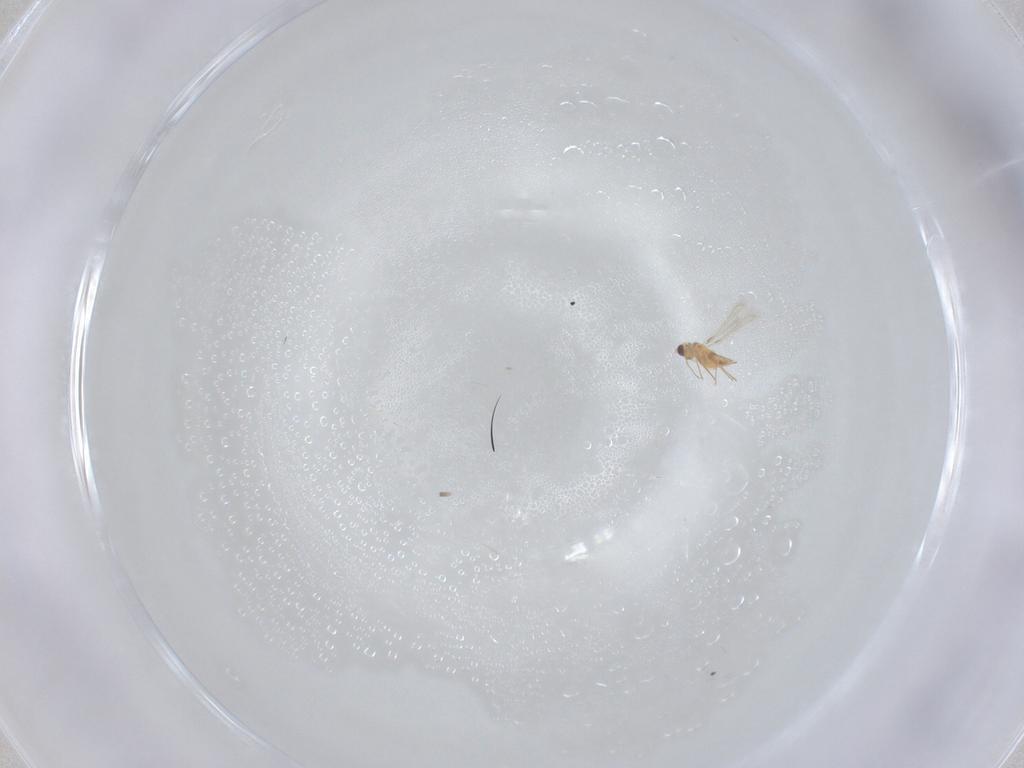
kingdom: Animalia
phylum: Arthropoda
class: Insecta
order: Hymenoptera
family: Mymaridae
